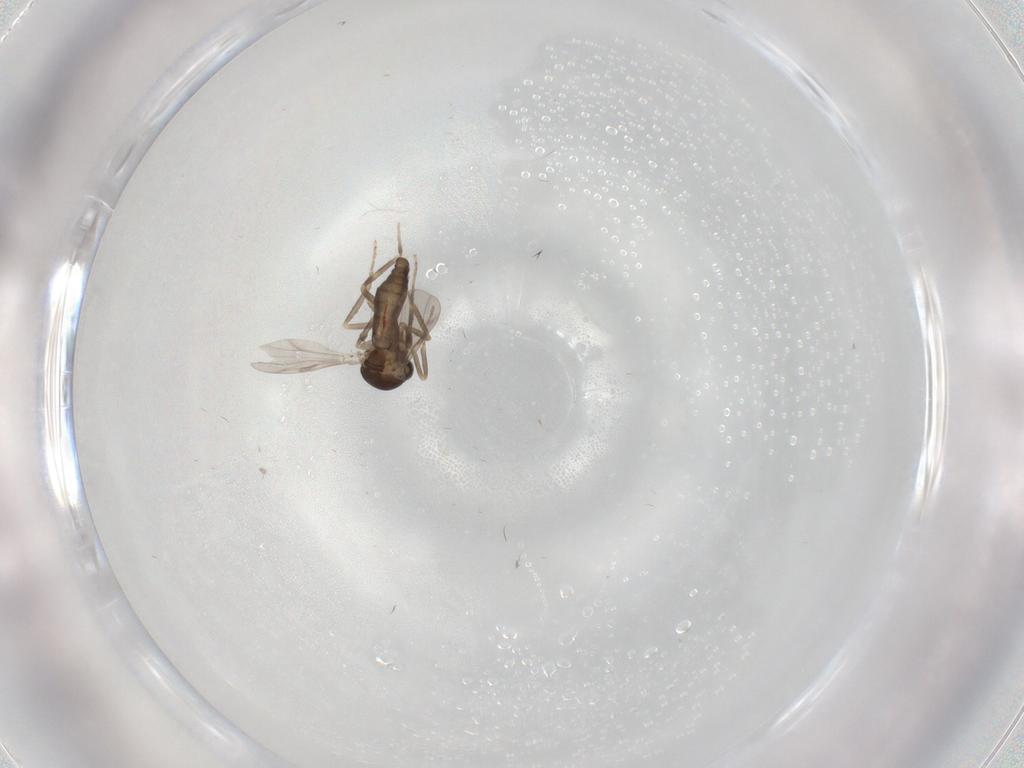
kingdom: Animalia
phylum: Arthropoda
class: Insecta
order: Diptera
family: Ceratopogonidae
